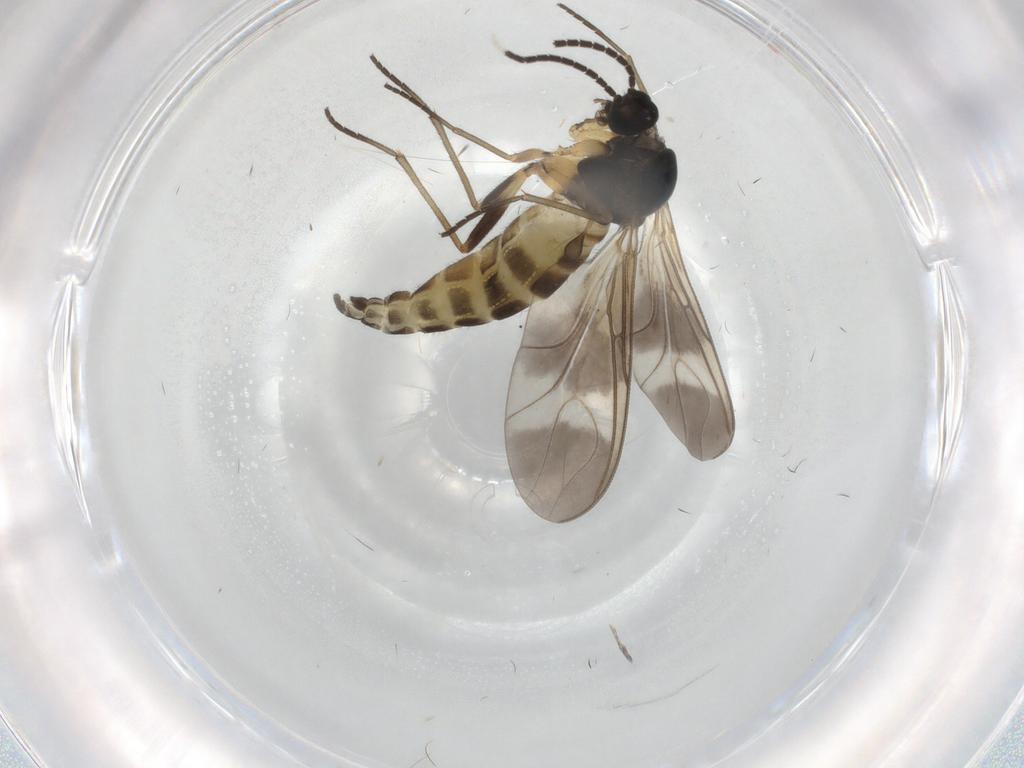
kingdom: Animalia
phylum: Arthropoda
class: Insecta
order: Diptera
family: Sciaridae
